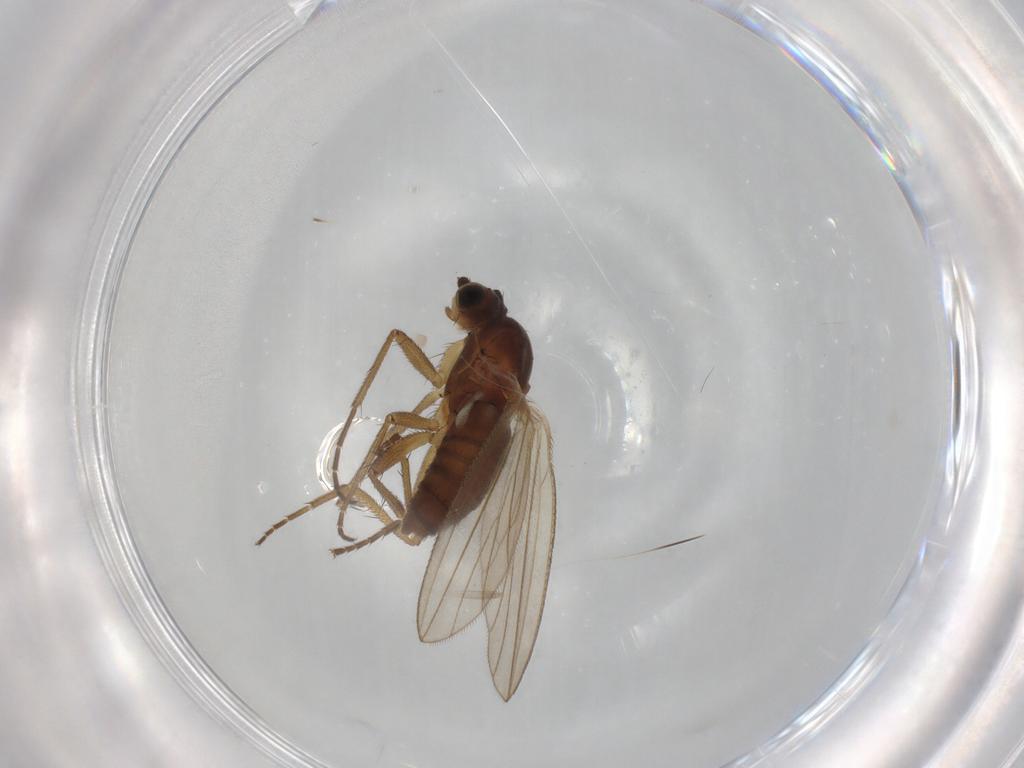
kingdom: Animalia
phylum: Arthropoda
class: Insecta
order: Diptera
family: Lonchopteridae
